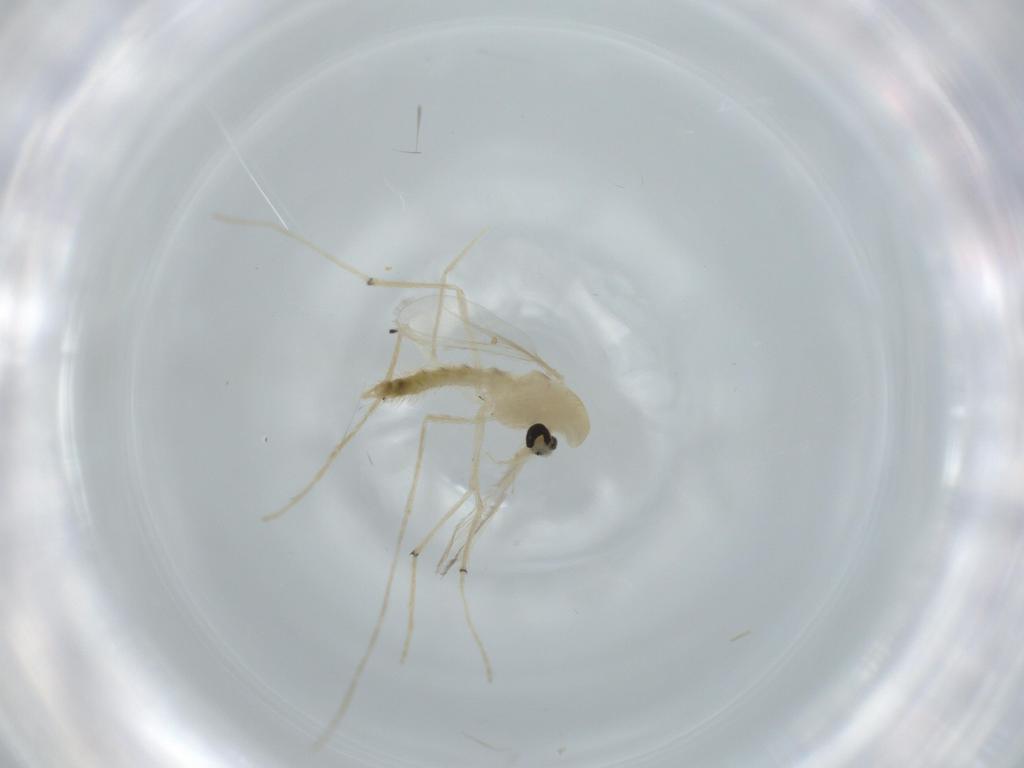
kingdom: Animalia
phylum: Arthropoda
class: Insecta
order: Diptera
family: Chironomidae
